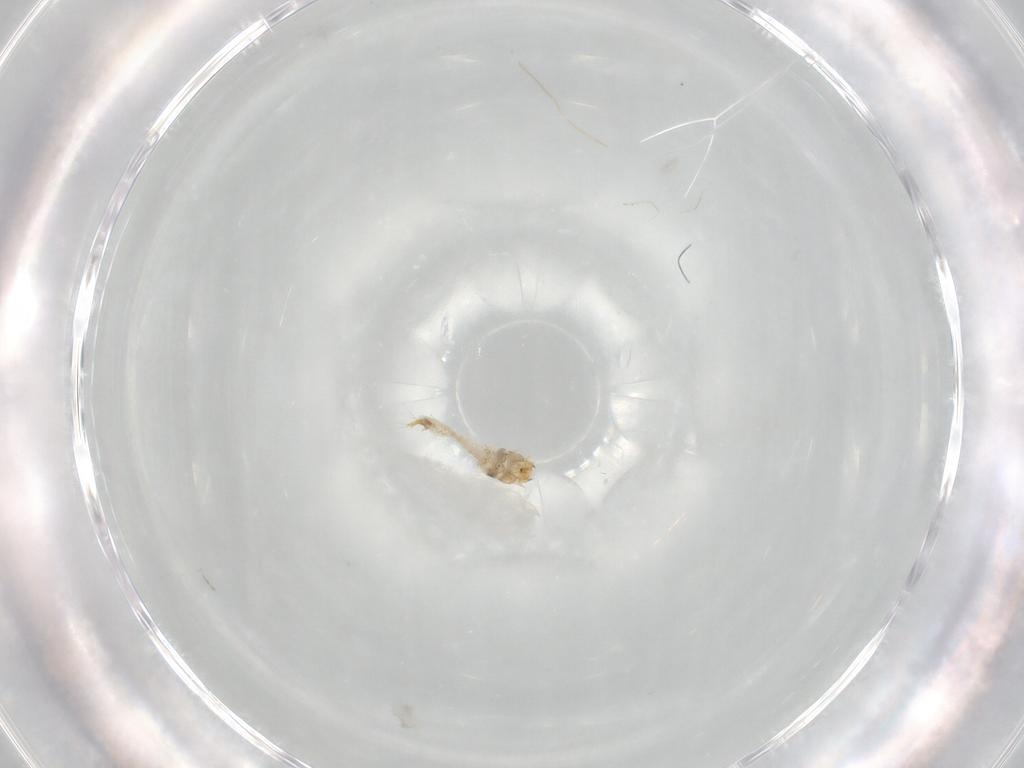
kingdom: Animalia
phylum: Arthropoda
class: Insecta
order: Coleoptera
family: Nitidulidae
